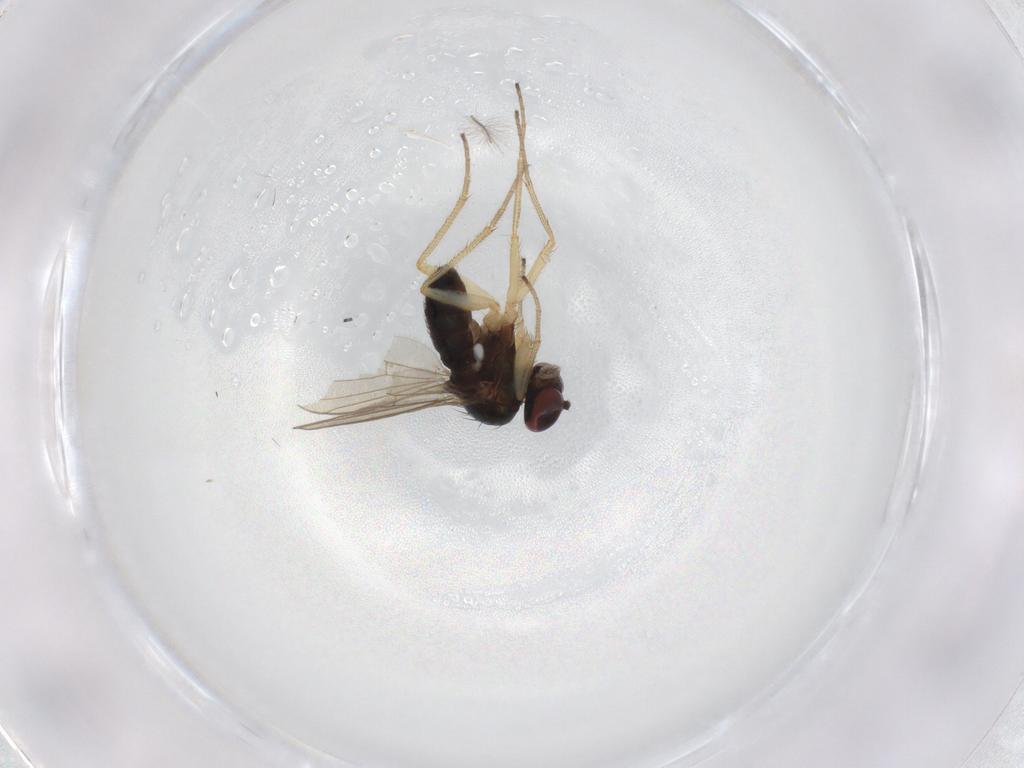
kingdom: Animalia
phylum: Arthropoda
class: Insecta
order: Diptera
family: Dolichopodidae
